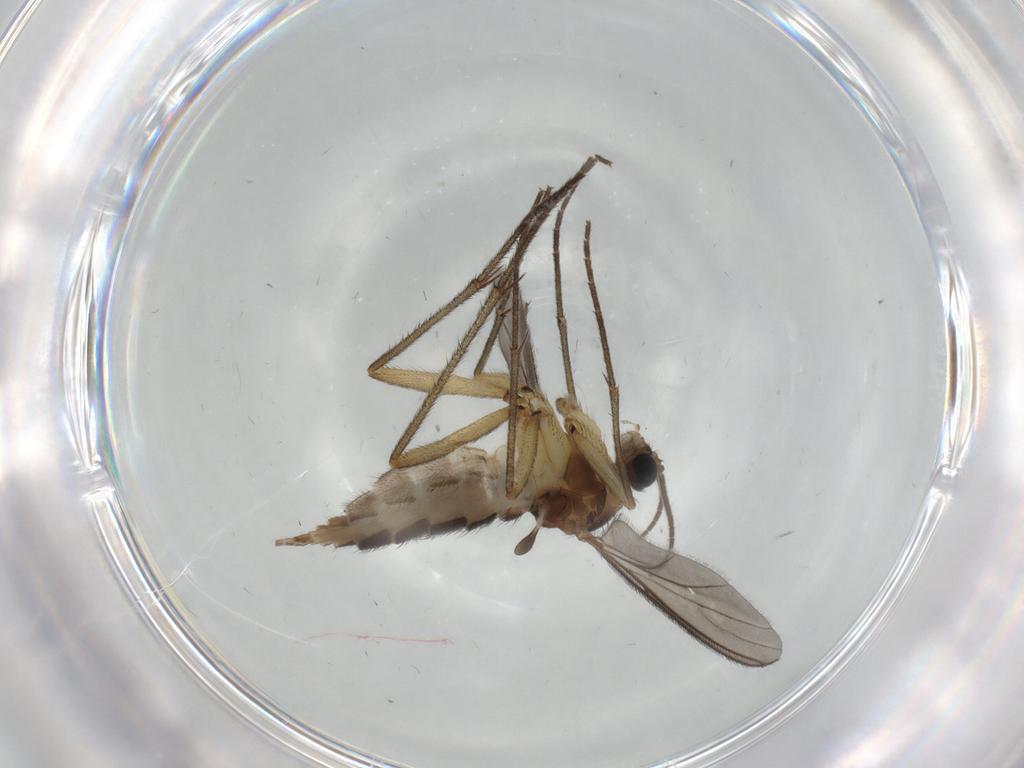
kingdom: Animalia
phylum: Arthropoda
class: Insecta
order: Diptera
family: Sciaridae
